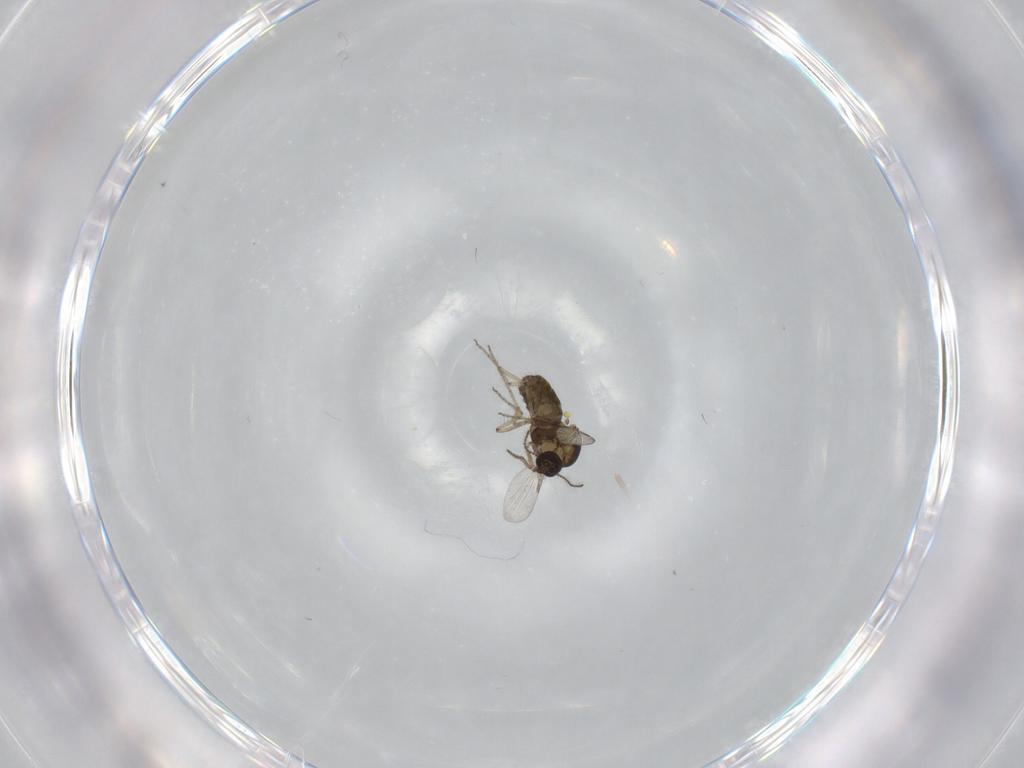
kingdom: Animalia
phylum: Arthropoda
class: Insecta
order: Diptera
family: Ceratopogonidae
